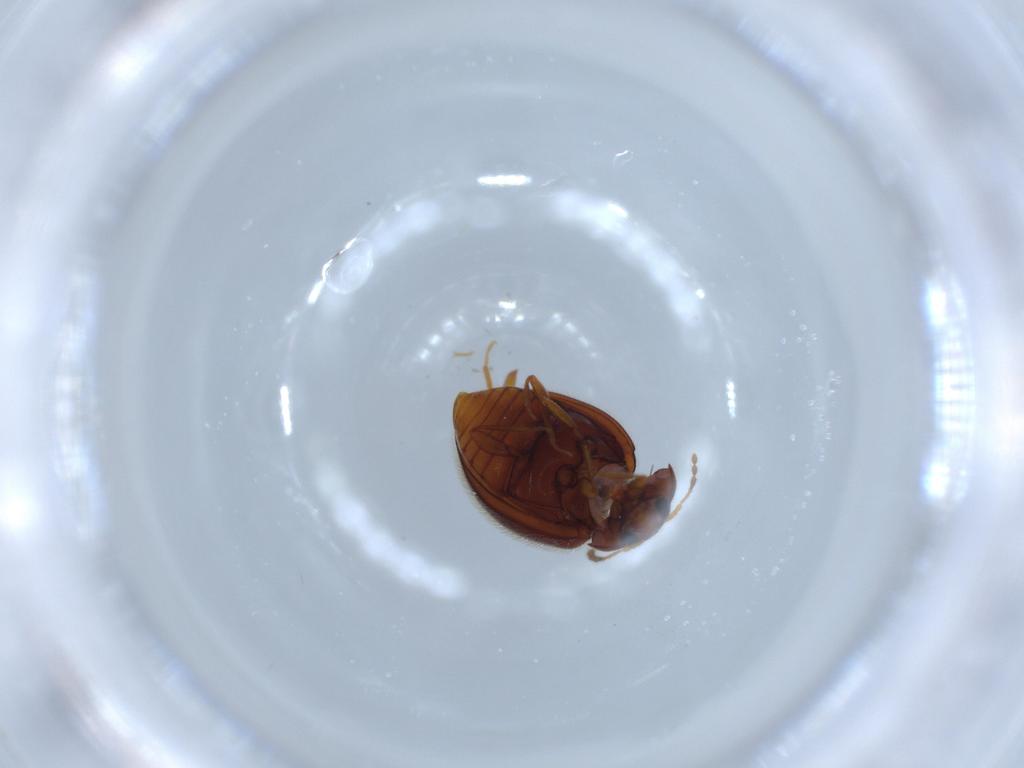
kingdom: Animalia
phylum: Arthropoda
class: Insecta
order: Coleoptera
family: Anamorphidae
